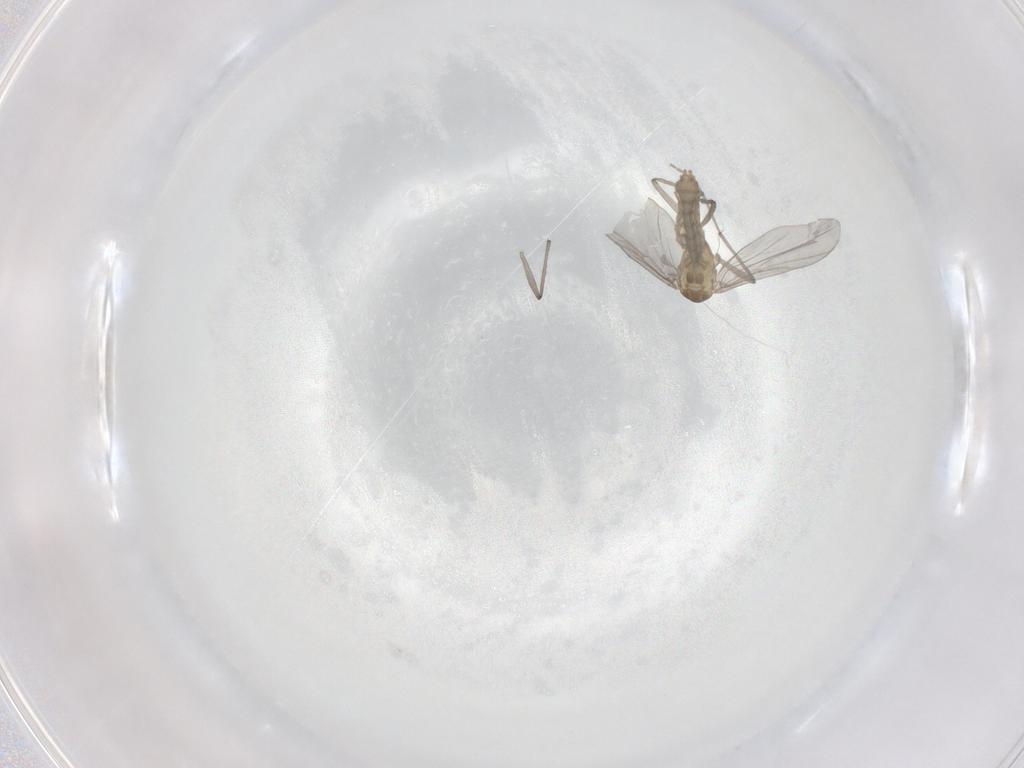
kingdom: Animalia
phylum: Arthropoda
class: Insecta
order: Diptera
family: Chironomidae
